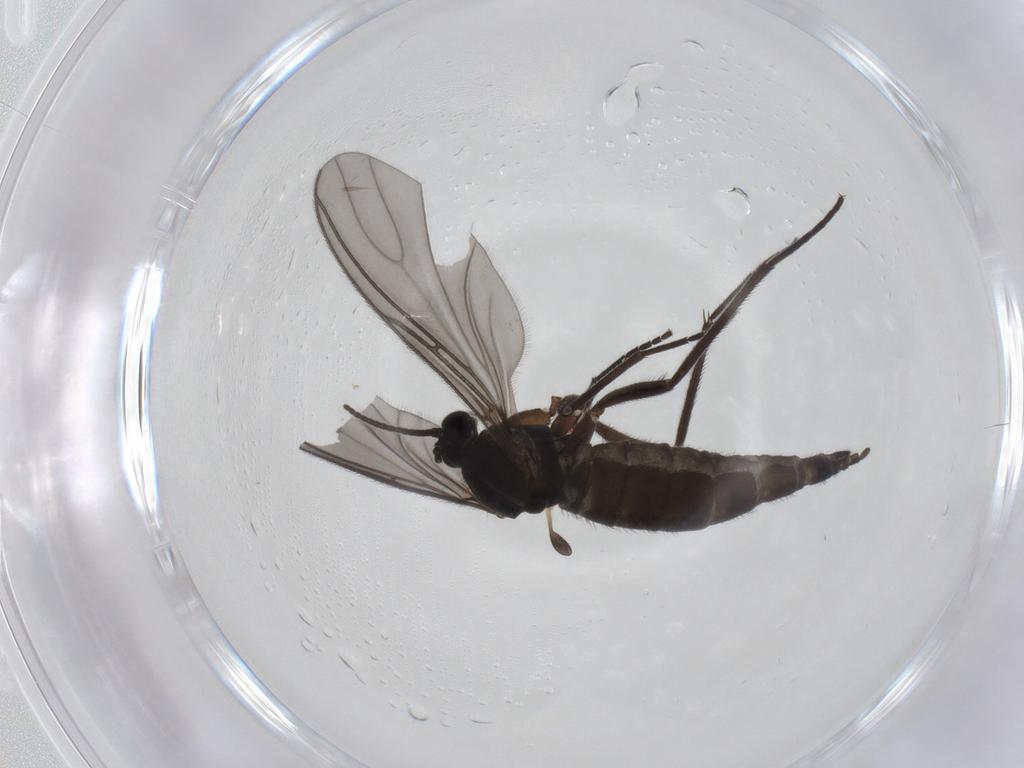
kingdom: Animalia
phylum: Arthropoda
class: Insecta
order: Diptera
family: Sciaridae
